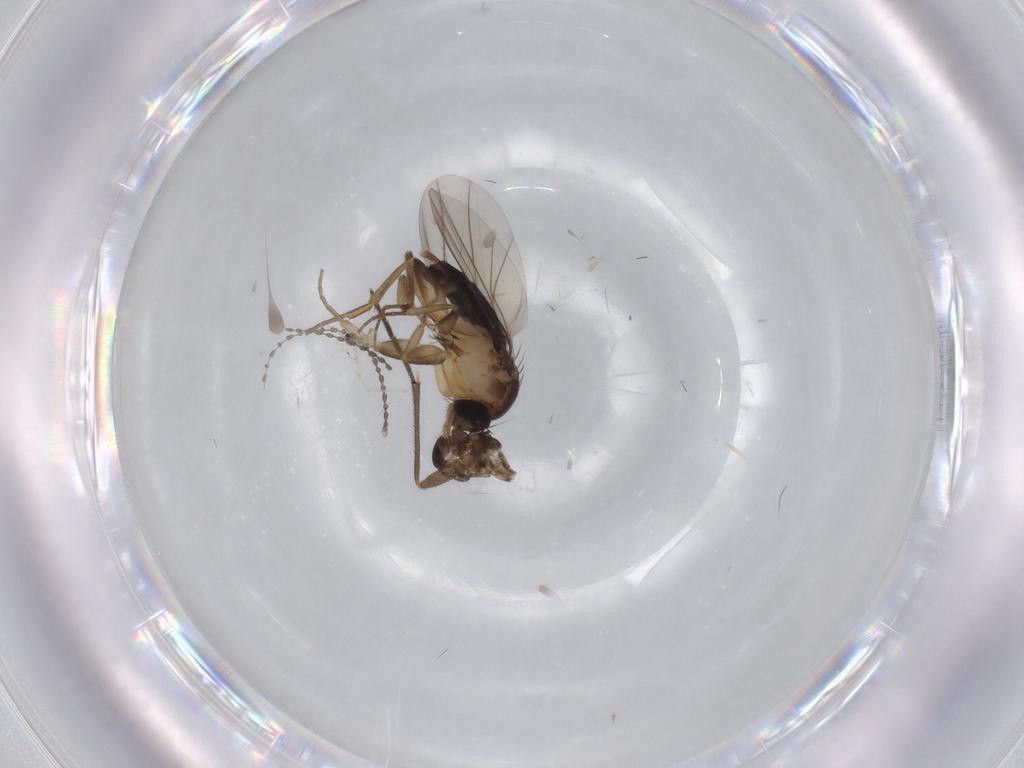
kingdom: Animalia
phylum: Arthropoda
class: Insecta
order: Diptera
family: Phoridae
